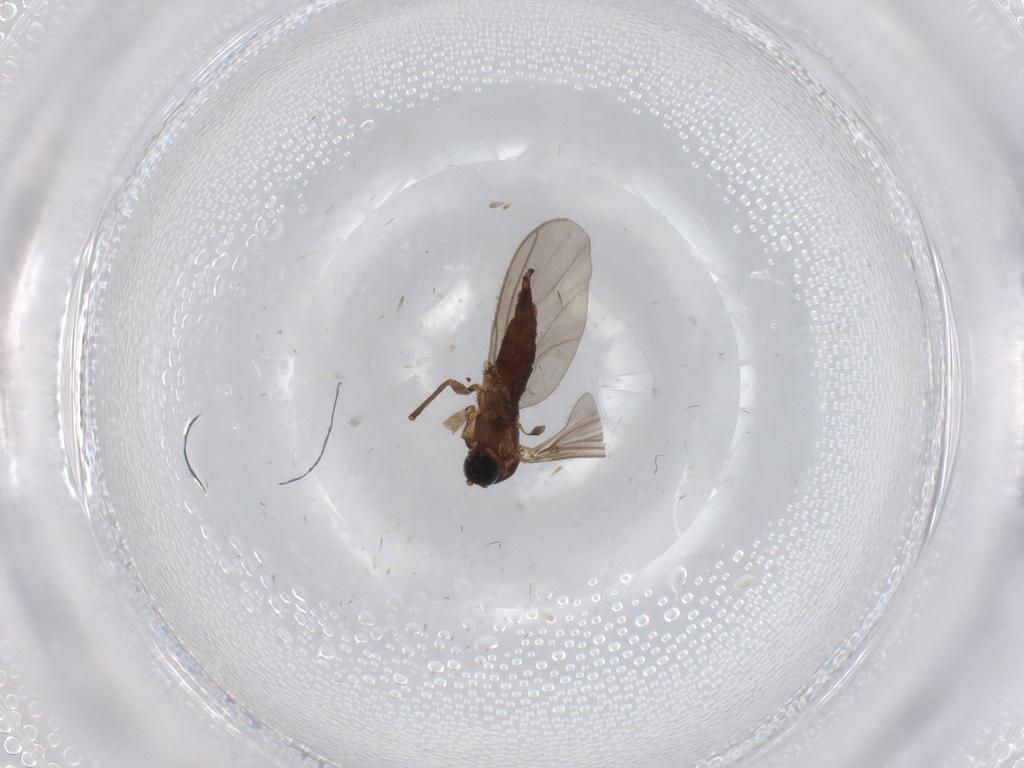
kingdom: Animalia
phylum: Arthropoda
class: Insecta
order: Diptera
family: Sciaridae
